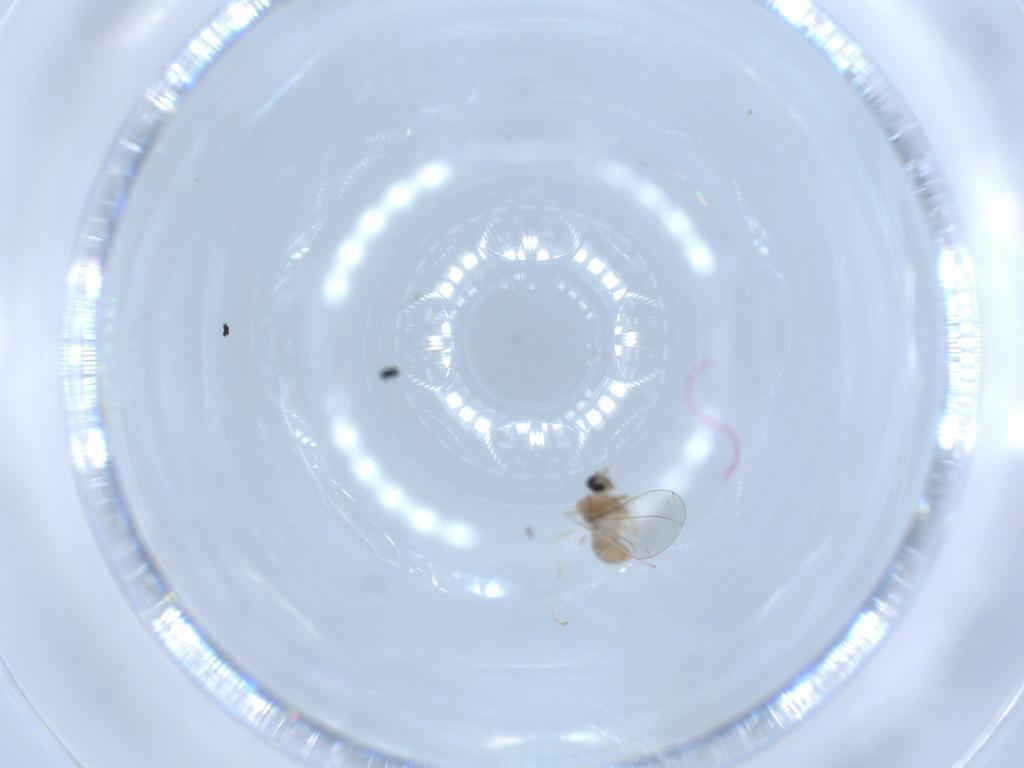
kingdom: Animalia
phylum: Arthropoda
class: Insecta
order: Diptera
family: Cecidomyiidae
